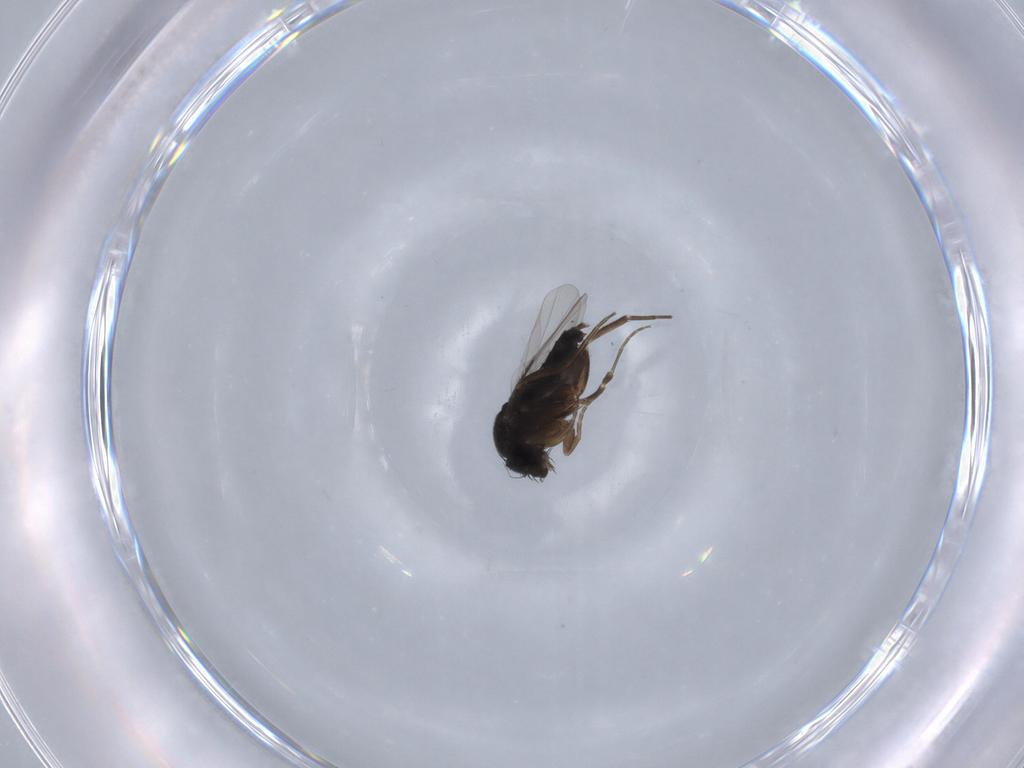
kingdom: Animalia
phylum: Arthropoda
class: Insecta
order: Diptera
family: Phoridae
